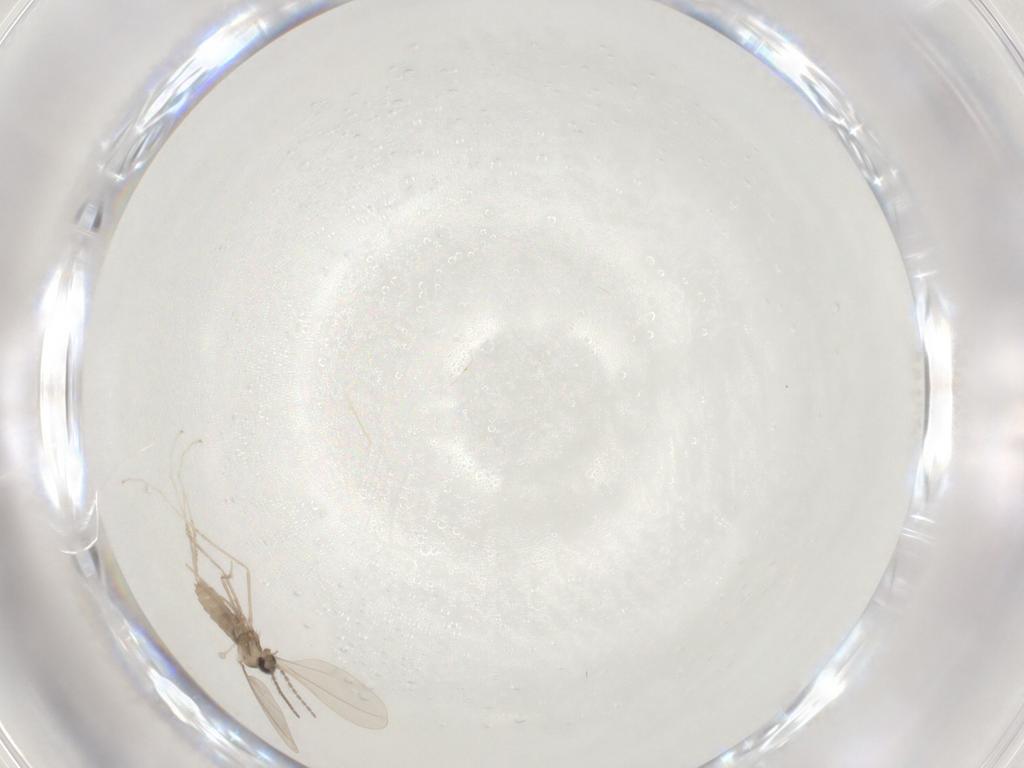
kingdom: Animalia
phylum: Arthropoda
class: Insecta
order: Diptera
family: Cecidomyiidae
